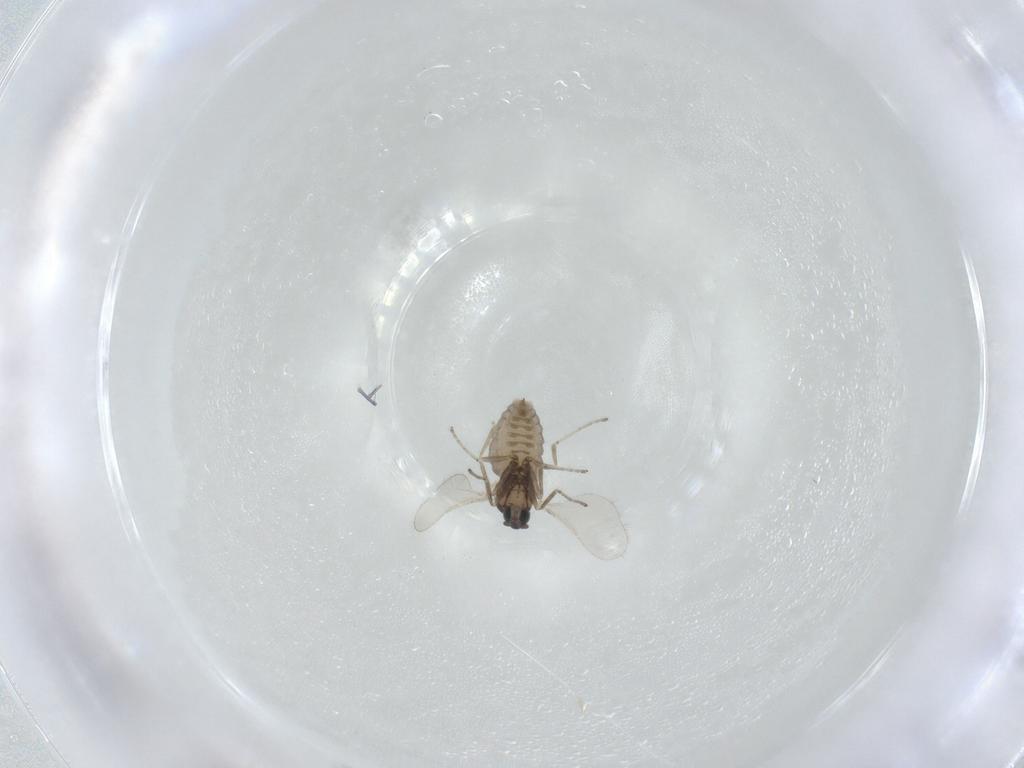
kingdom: Animalia
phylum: Arthropoda
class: Insecta
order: Diptera
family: Cecidomyiidae
